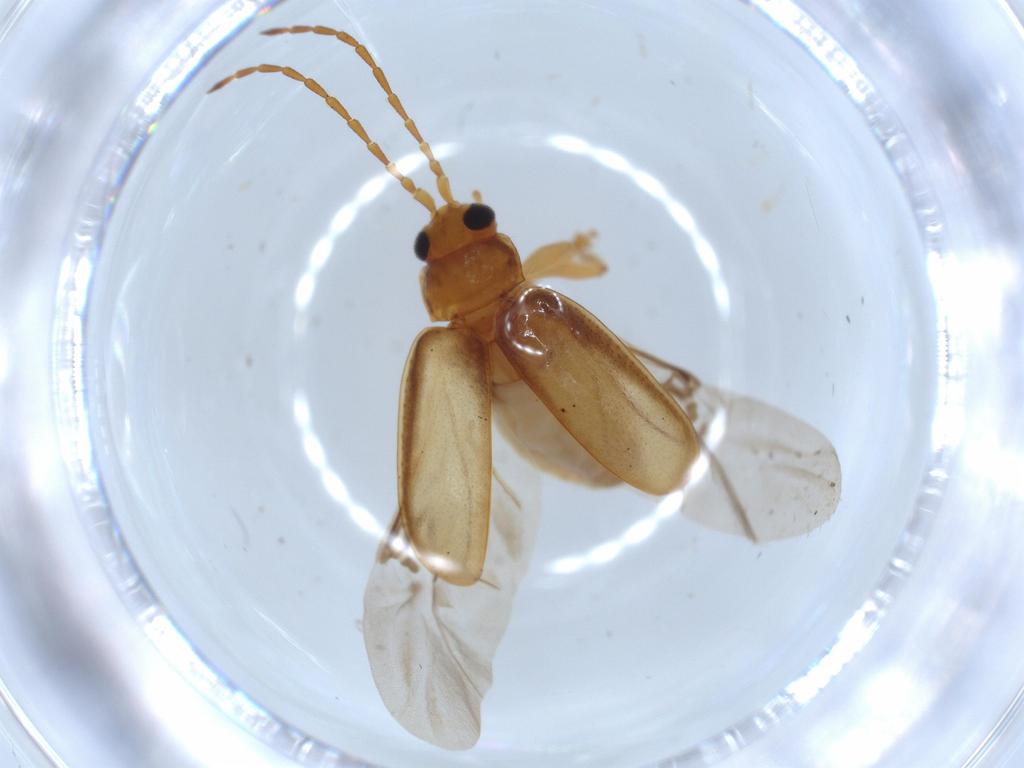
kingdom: Animalia
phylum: Arthropoda
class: Insecta
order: Coleoptera
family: Chrysomelidae
